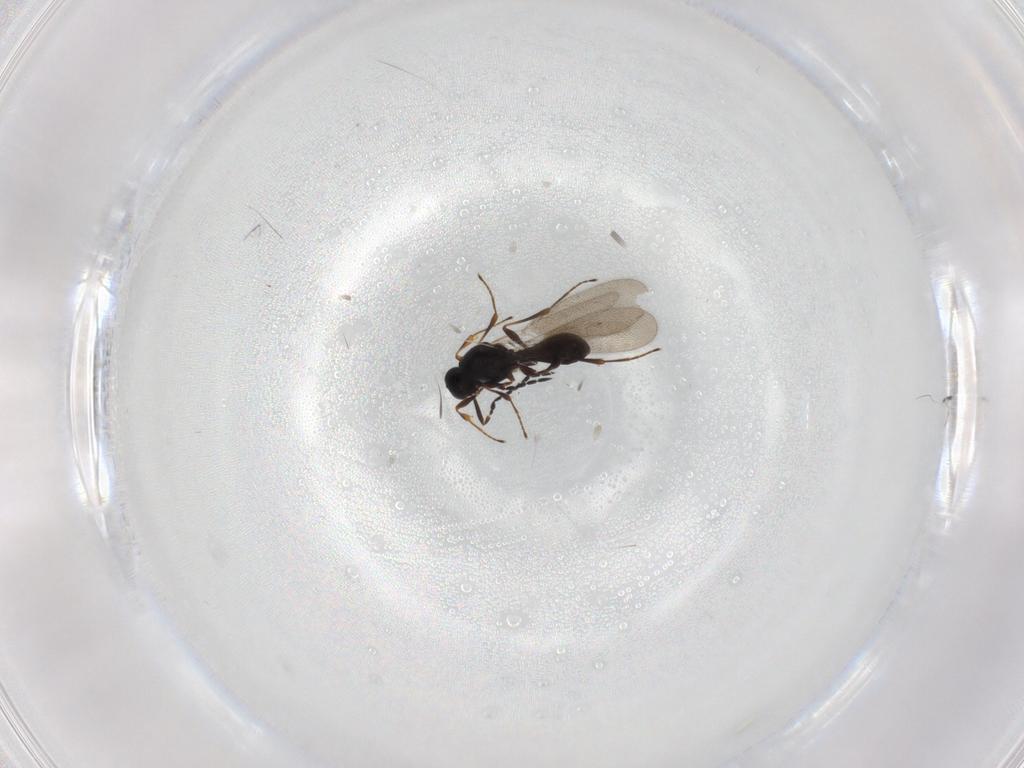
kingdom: Animalia
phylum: Arthropoda
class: Insecta
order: Hymenoptera
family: Platygastridae
